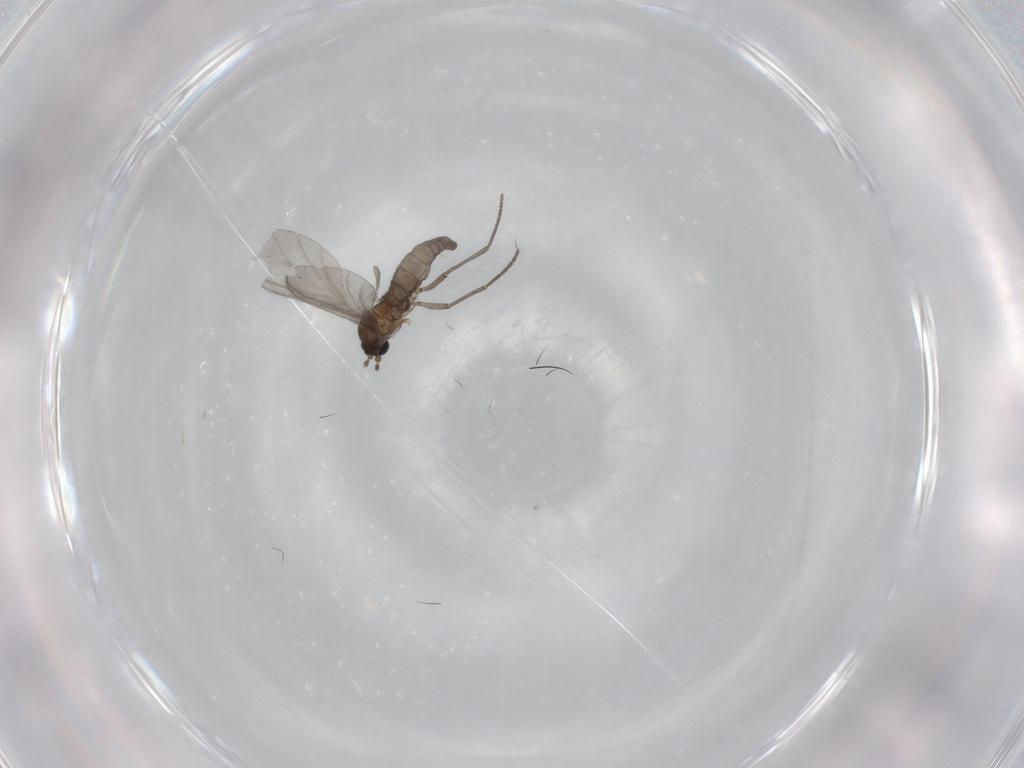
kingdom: Animalia
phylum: Arthropoda
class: Insecta
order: Diptera
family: Sciaridae
